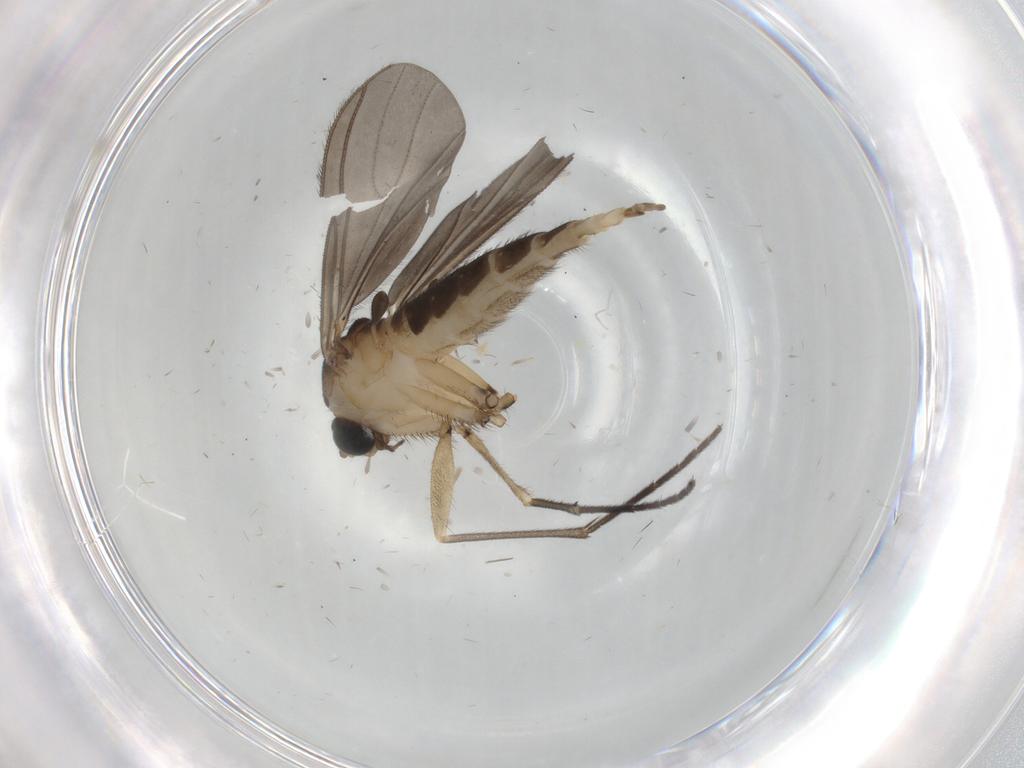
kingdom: Animalia
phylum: Arthropoda
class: Insecta
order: Diptera
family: Sciaridae
